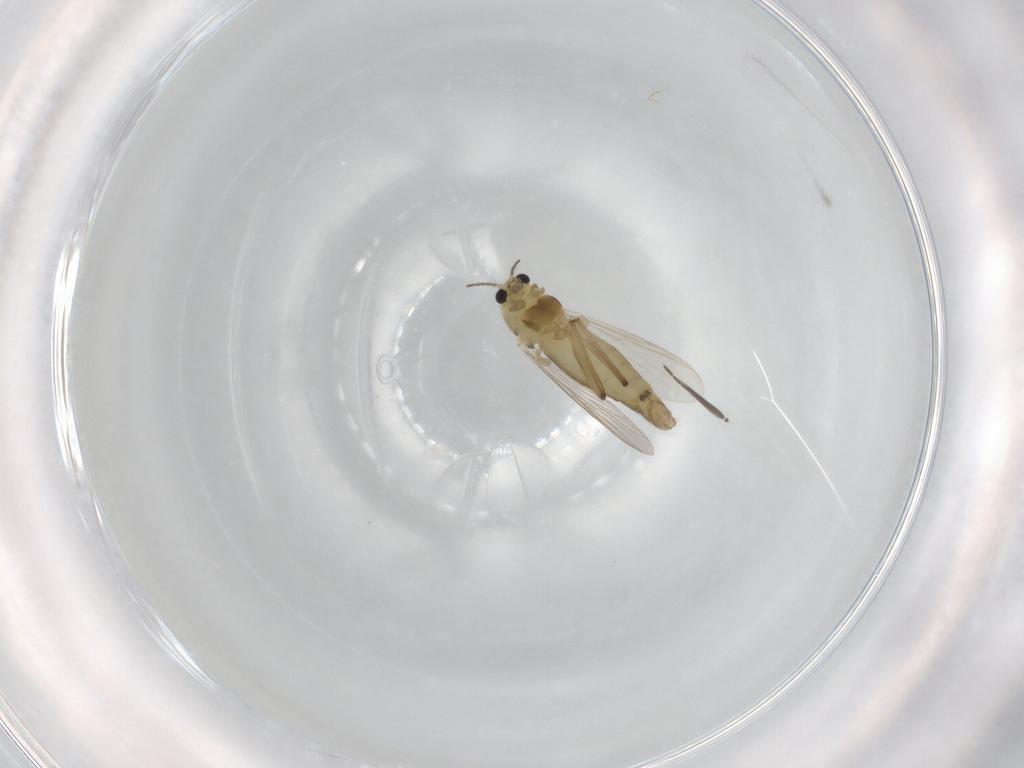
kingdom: Animalia
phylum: Arthropoda
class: Insecta
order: Diptera
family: Chironomidae
